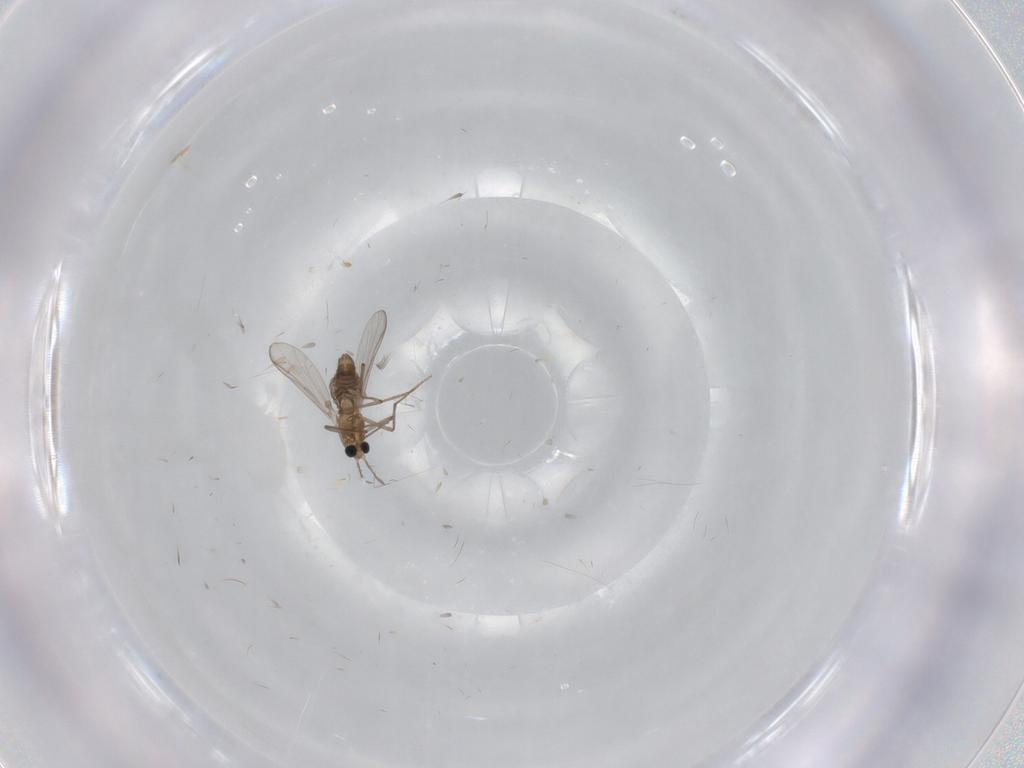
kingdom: Animalia
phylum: Arthropoda
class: Insecta
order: Diptera
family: Chironomidae
